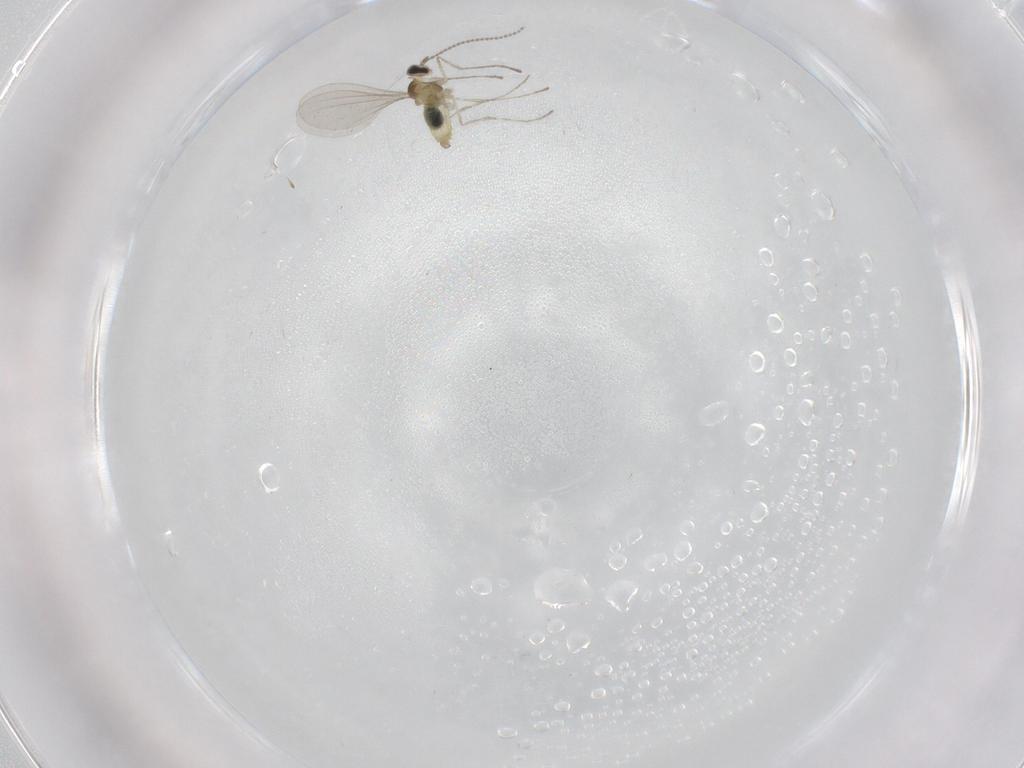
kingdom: Animalia
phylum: Arthropoda
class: Insecta
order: Diptera
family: Cecidomyiidae
